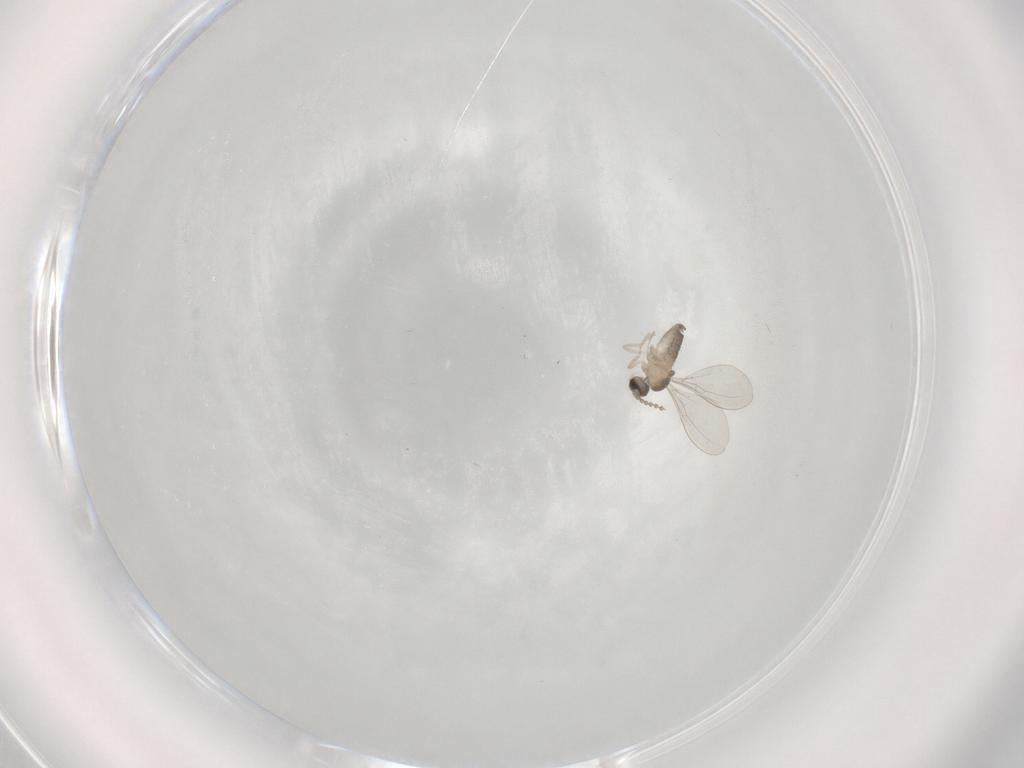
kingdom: Animalia
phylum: Arthropoda
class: Insecta
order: Diptera
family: Cecidomyiidae
